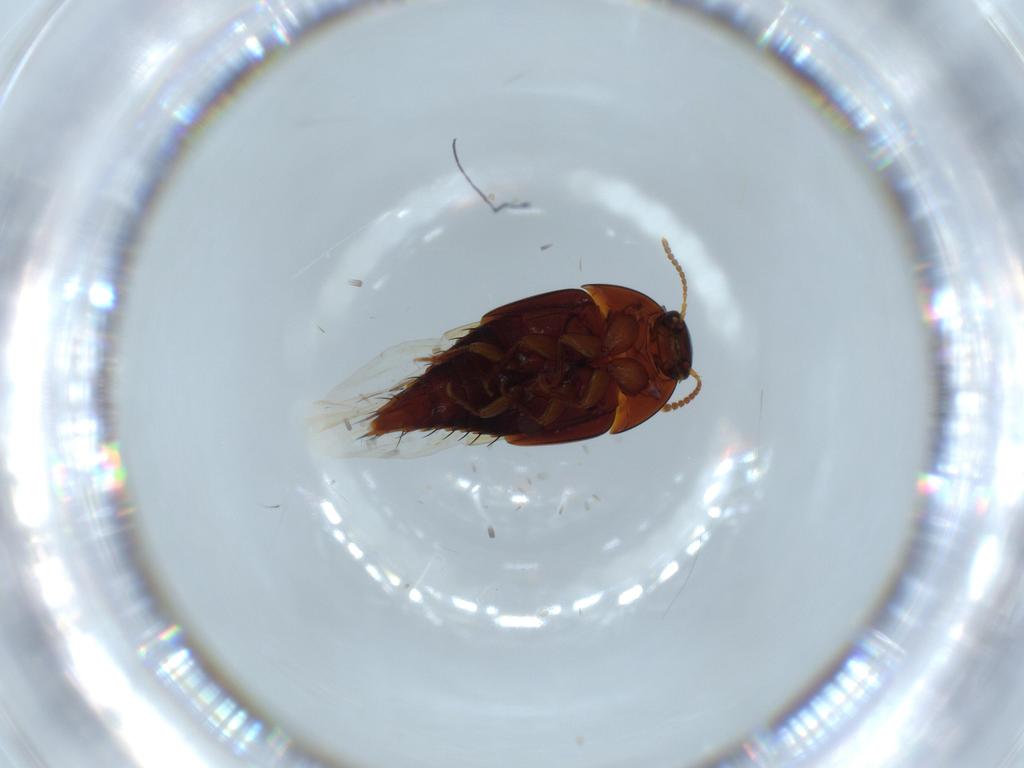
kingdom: Animalia
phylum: Arthropoda
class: Insecta
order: Coleoptera
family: Staphylinidae
